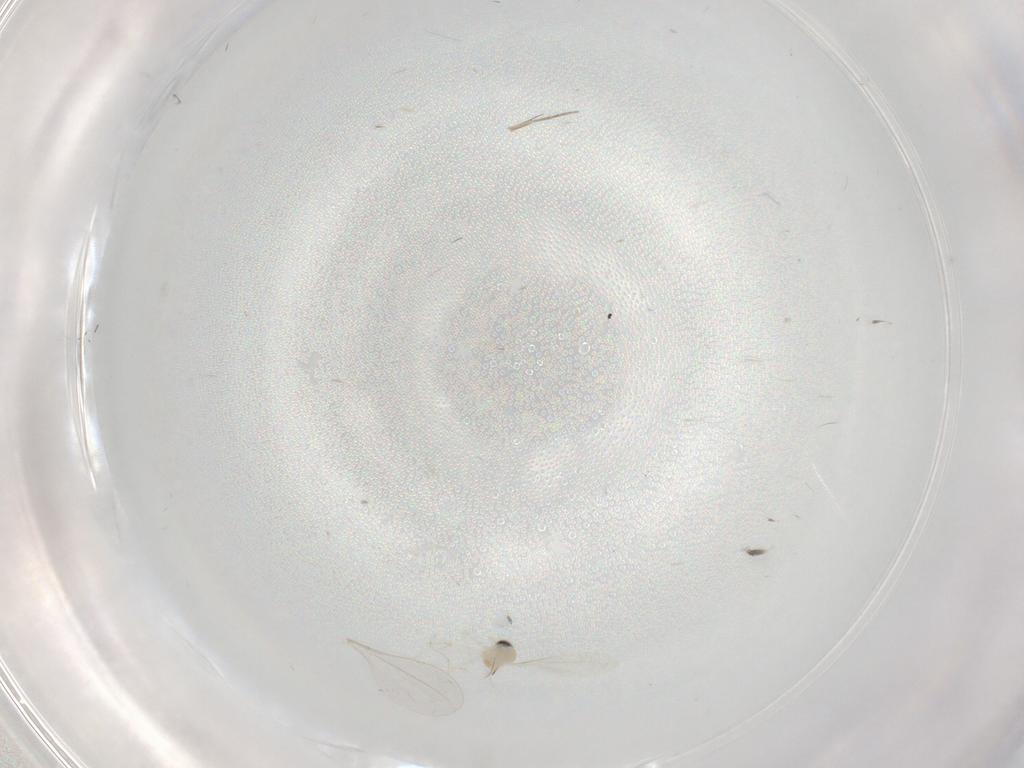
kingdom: Animalia
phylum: Arthropoda
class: Insecta
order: Diptera
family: Cecidomyiidae
